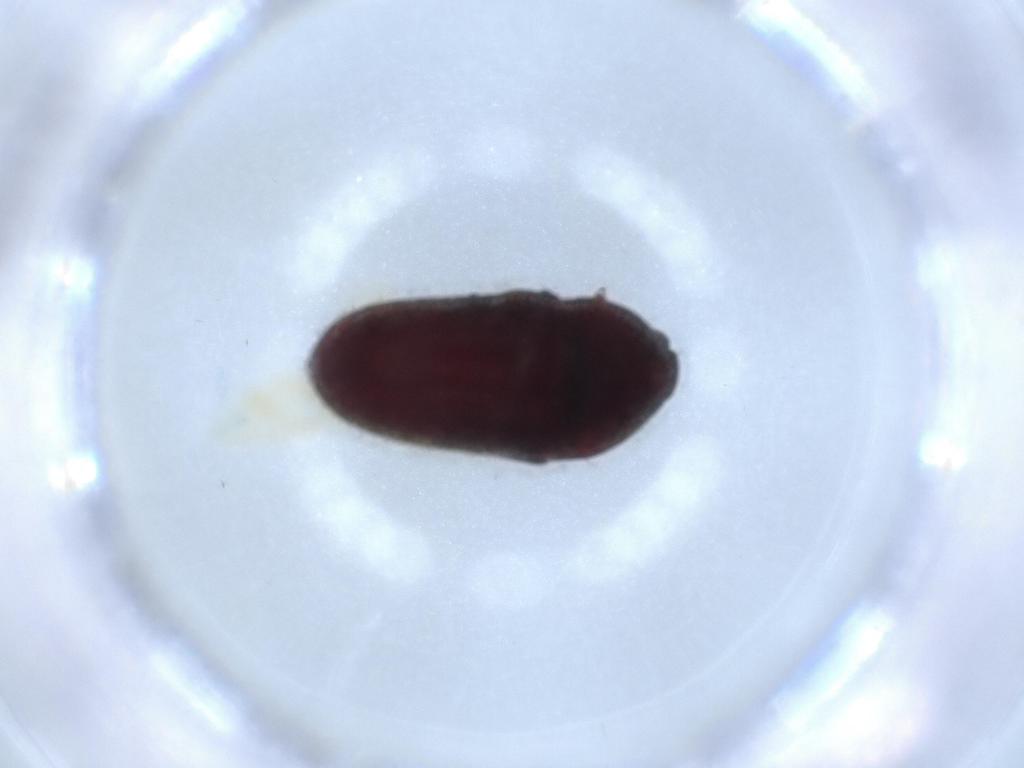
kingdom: Animalia
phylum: Arthropoda
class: Insecta
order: Coleoptera
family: Throscidae
